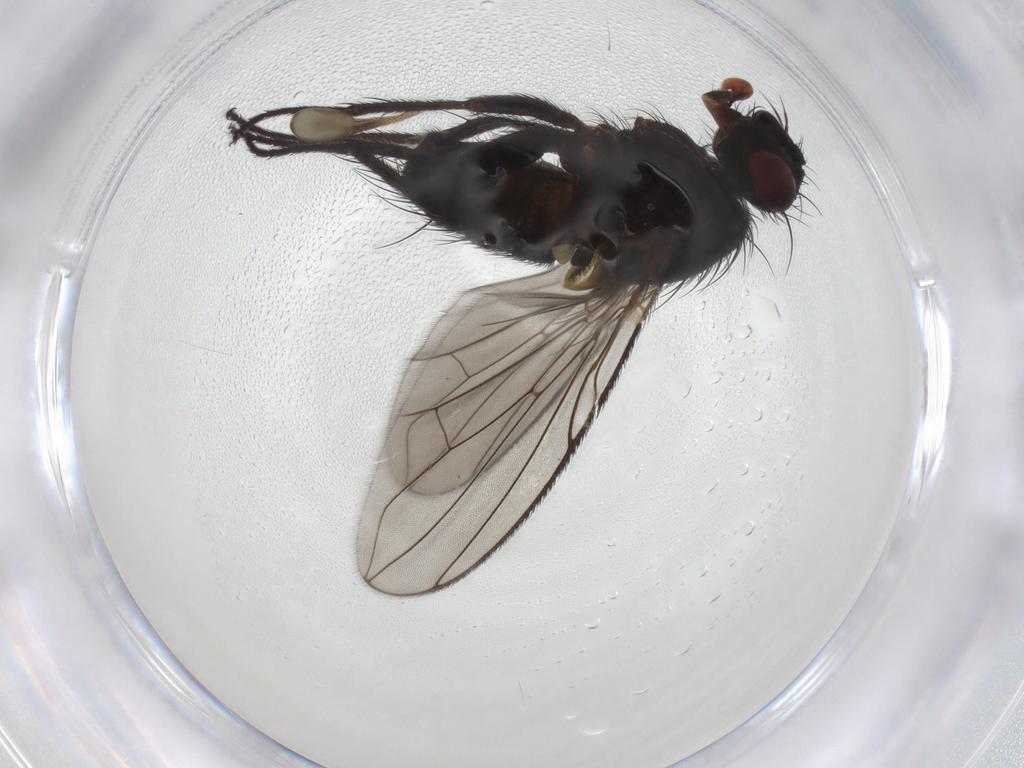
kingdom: Animalia
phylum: Arthropoda
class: Insecta
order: Diptera
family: Tachinidae
